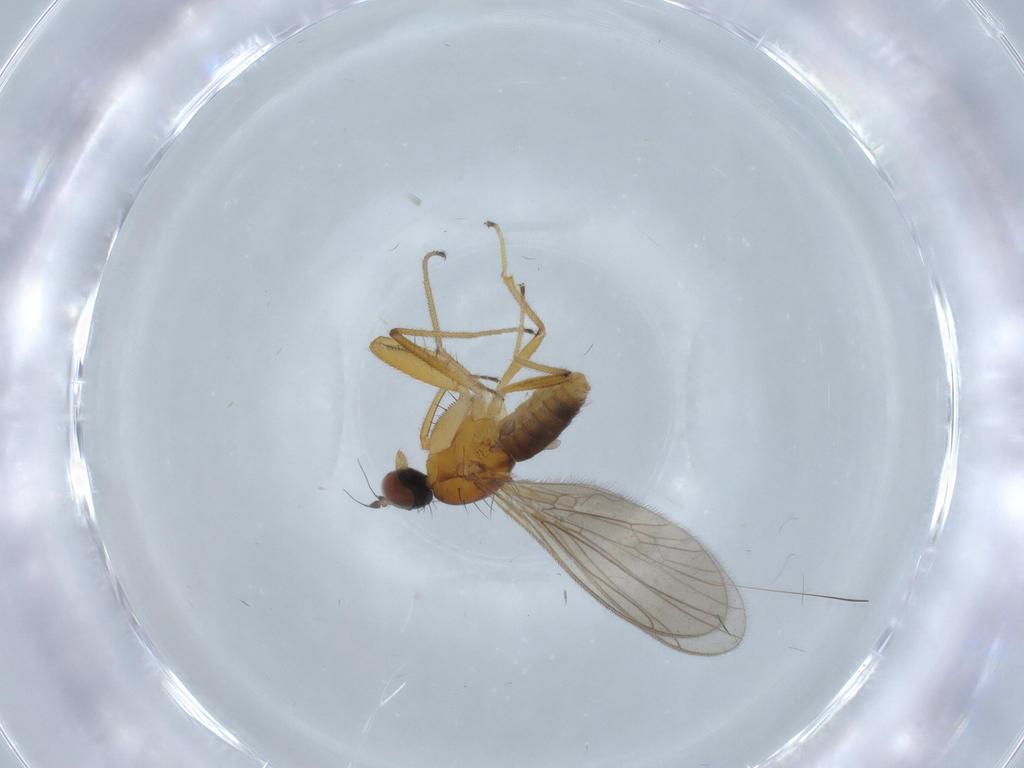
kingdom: Animalia
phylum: Arthropoda
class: Insecta
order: Diptera
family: Empididae
